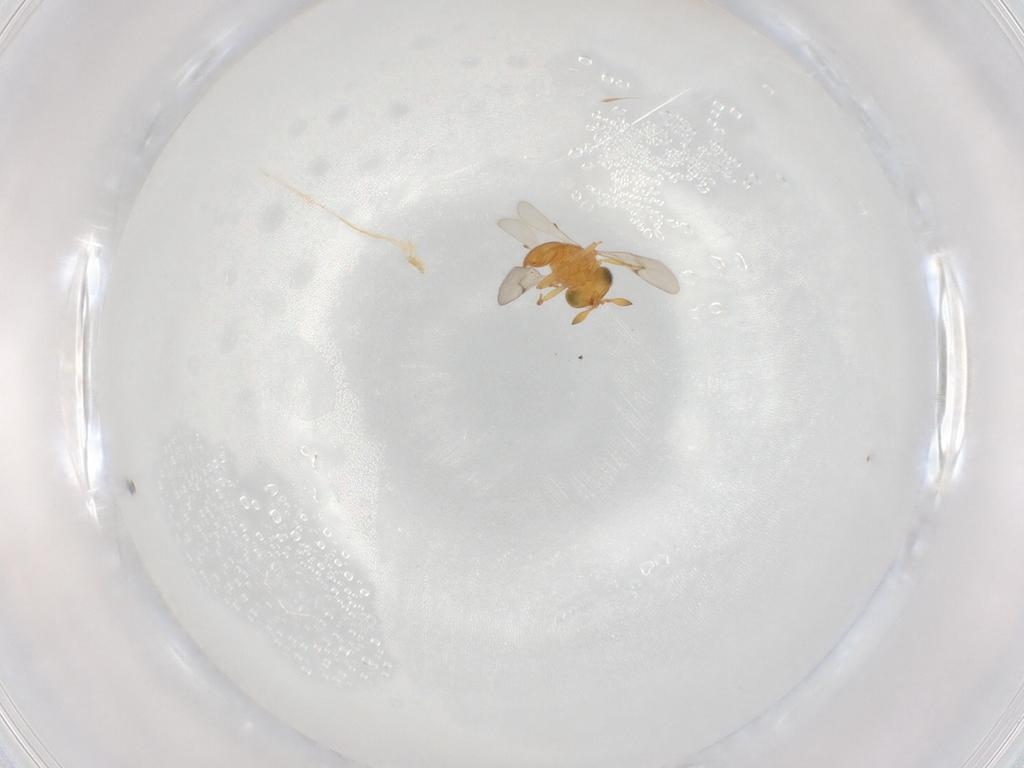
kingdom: Animalia
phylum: Arthropoda
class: Insecta
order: Hymenoptera
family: Scelionidae
